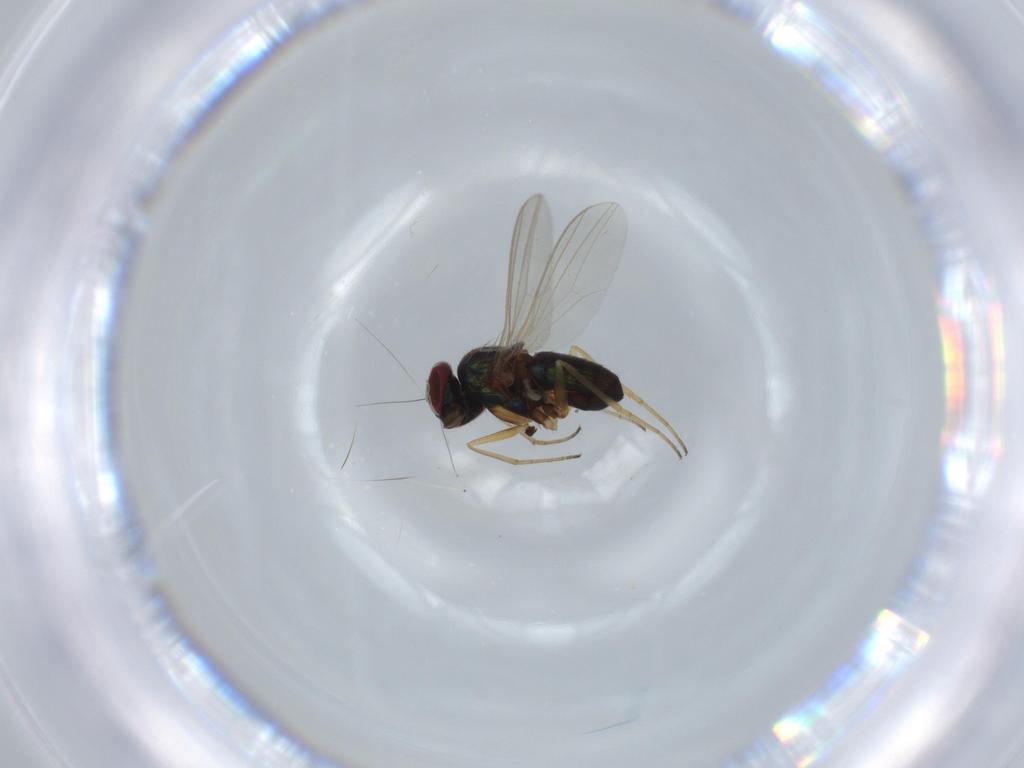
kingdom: Animalia
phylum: Arthropoda
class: Insecta
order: Diptera
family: Dolichopodidae
